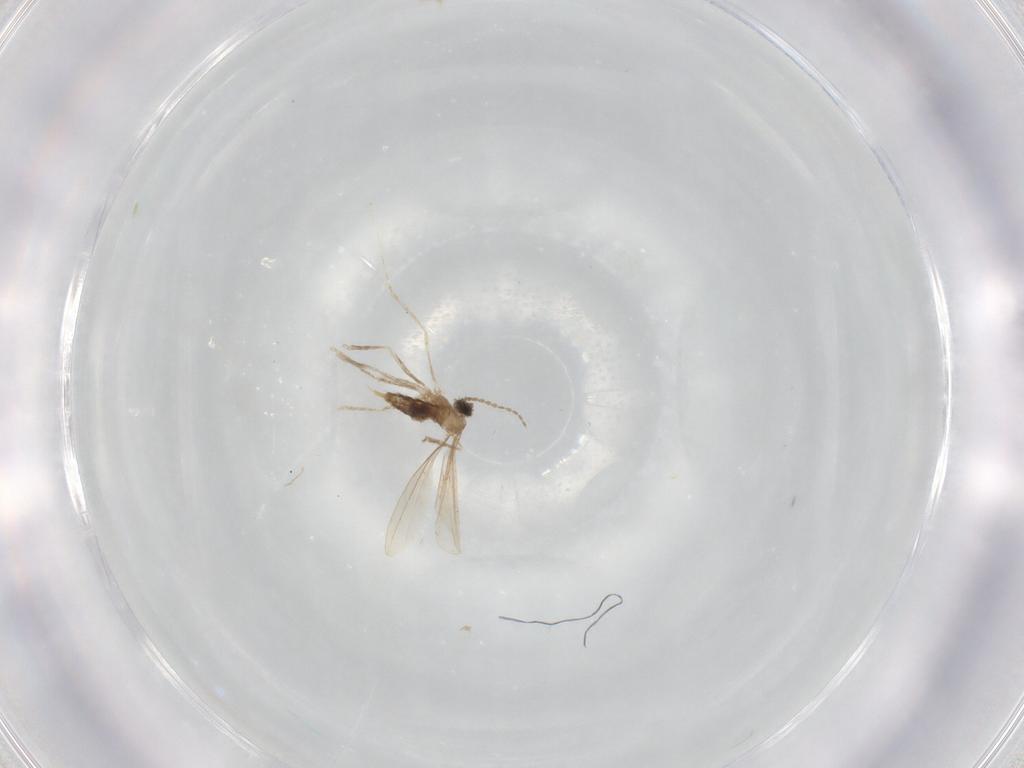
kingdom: Animalia
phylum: Arthropoda
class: Insecta
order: Diptera
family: Cecidomyiidae
